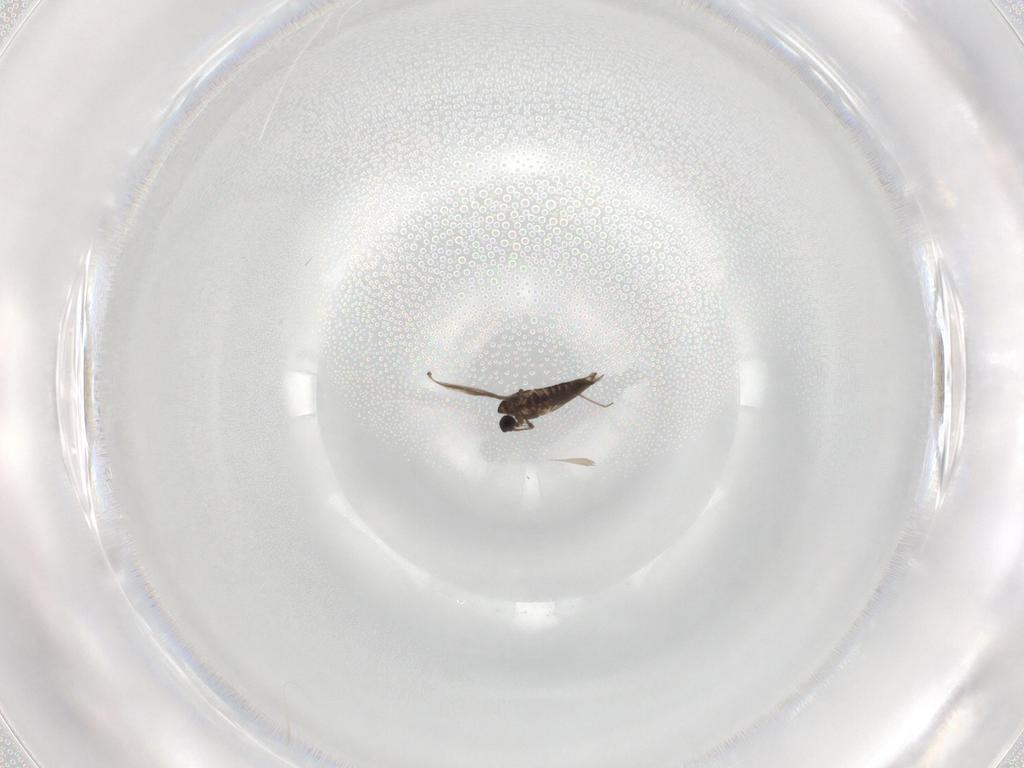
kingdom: Animalia
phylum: Arthropoda
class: Insecta
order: Diptera
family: Chironomidae
